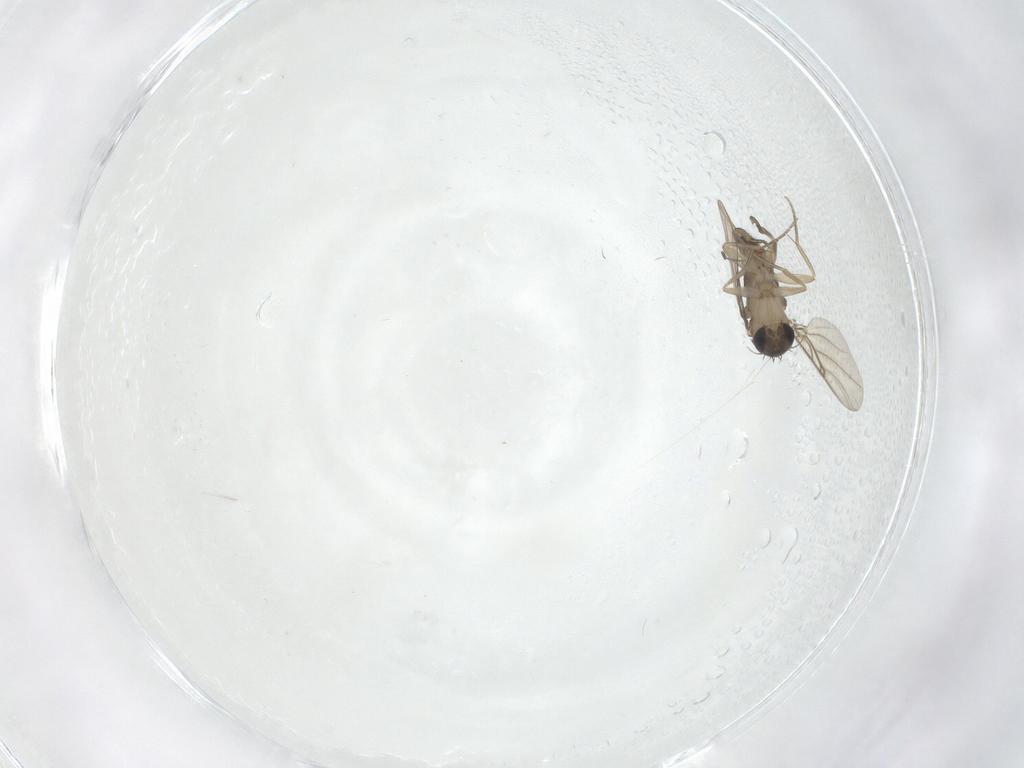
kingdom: Animalia
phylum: Arthropoda
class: Insecta
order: Diptera
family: Phoridae
